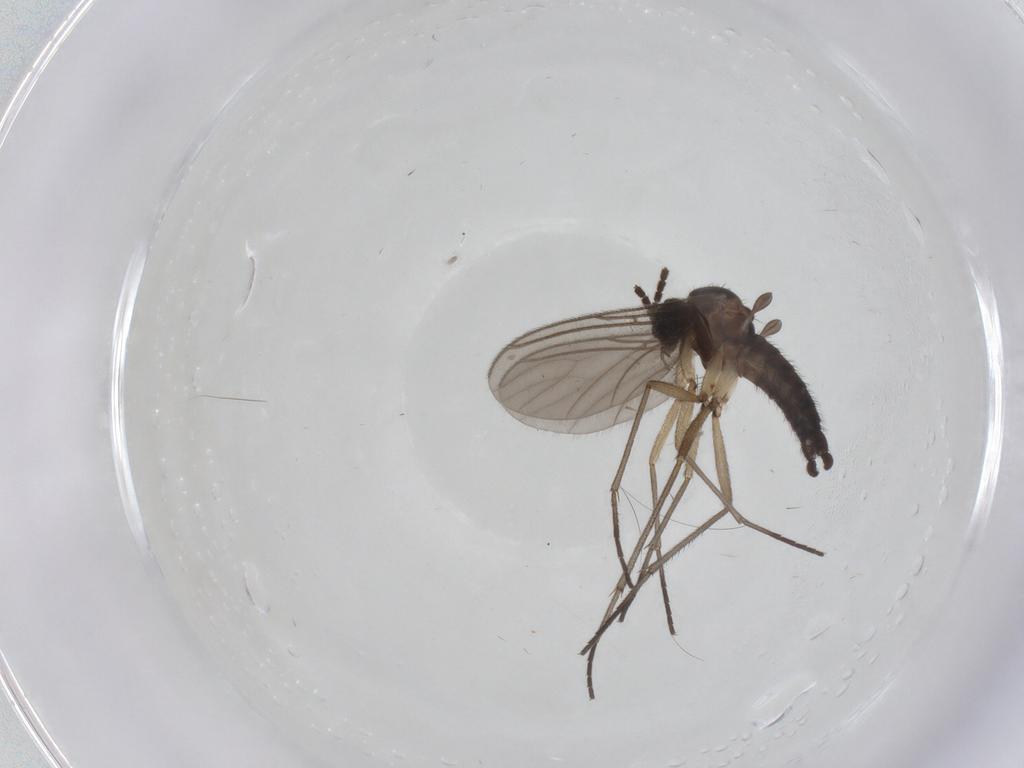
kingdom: Animalia
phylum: Arthropoda
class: Insecta
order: Diptera
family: Sciaridae
